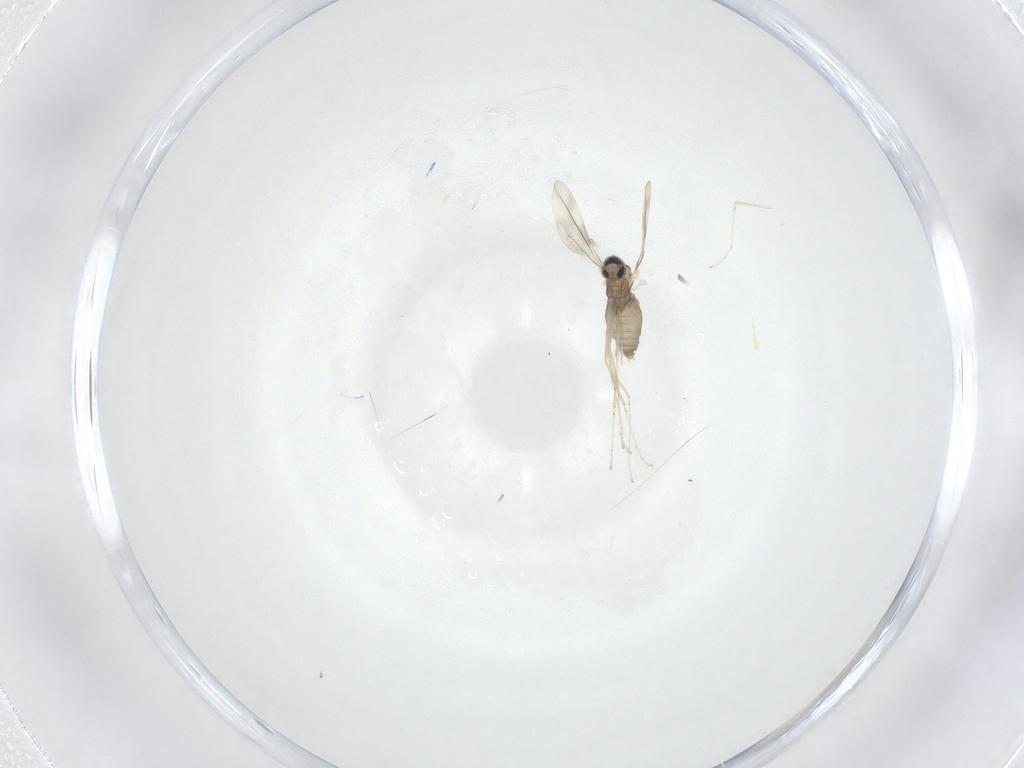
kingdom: Animalia
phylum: Arthropoda
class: Insecta
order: Diptera
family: Cecidomyiidae
